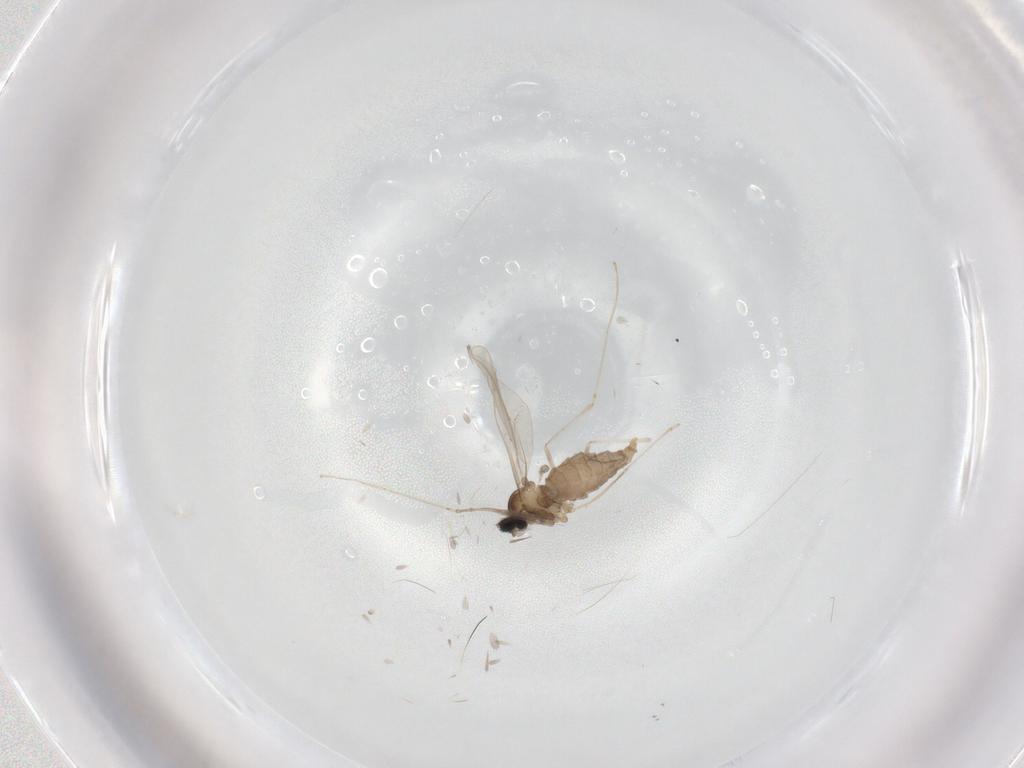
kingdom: Animalia
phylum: Arthropoda
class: Insecta
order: Diptera
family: Cecidomyiidae
